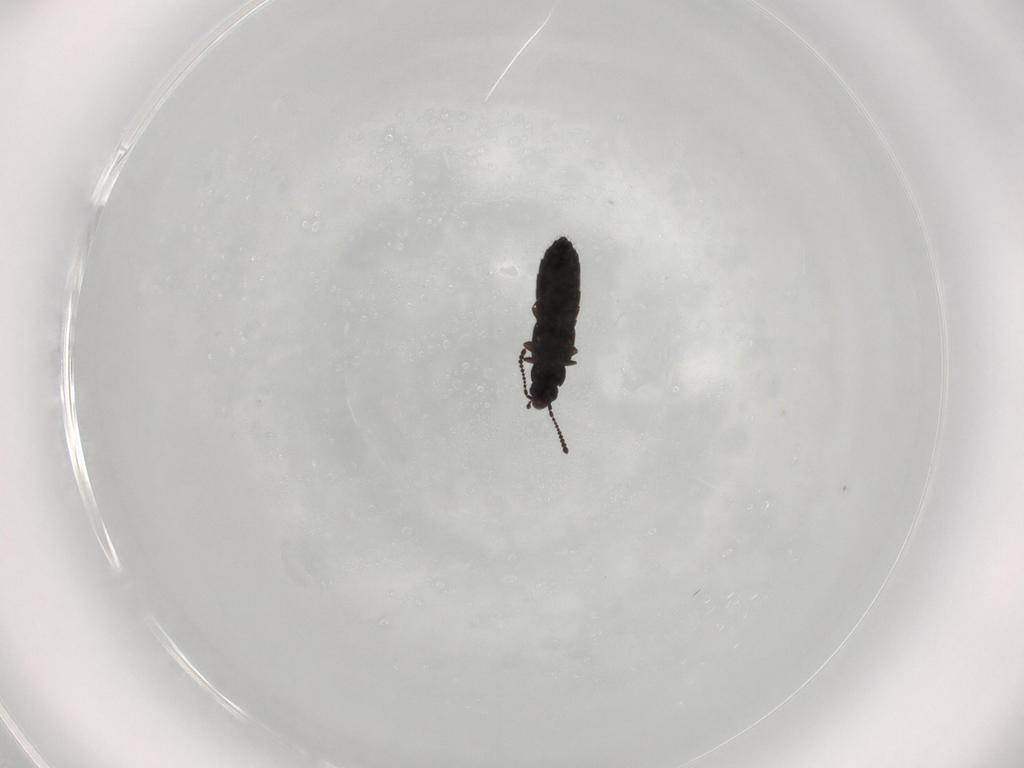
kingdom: Animalia
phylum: Arthropoda
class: Insecta
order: Coleoptera
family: Staphylinidae
